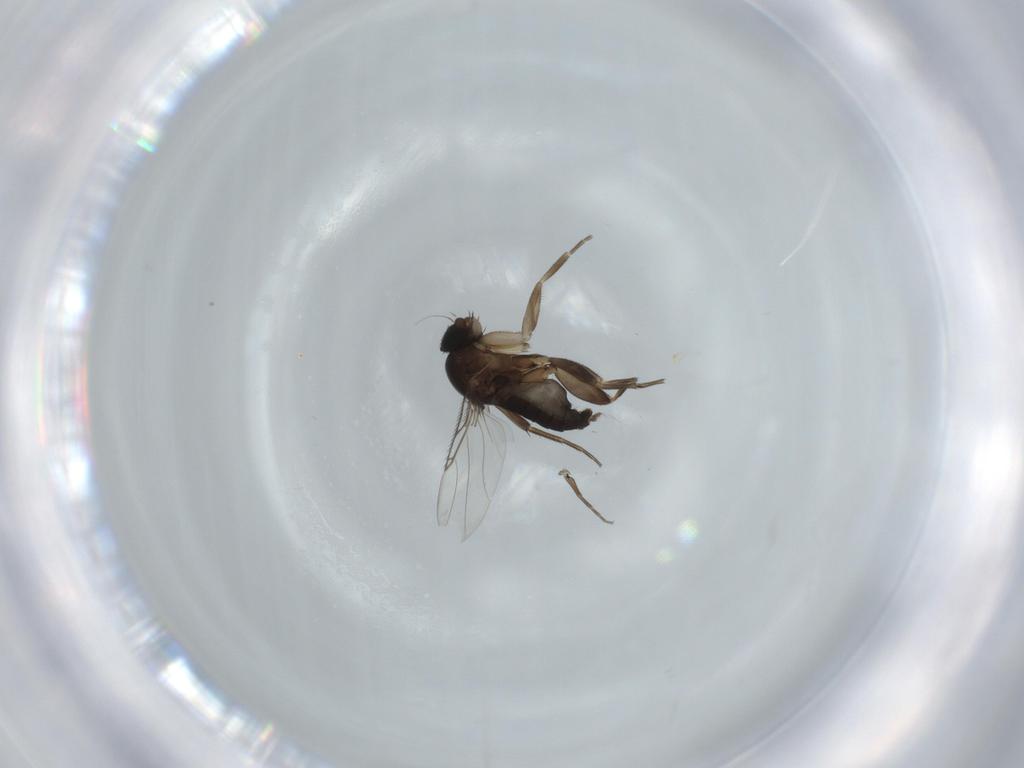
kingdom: Animalia
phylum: Arthropoda
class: Insecta
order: Diptera
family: Phoridae
